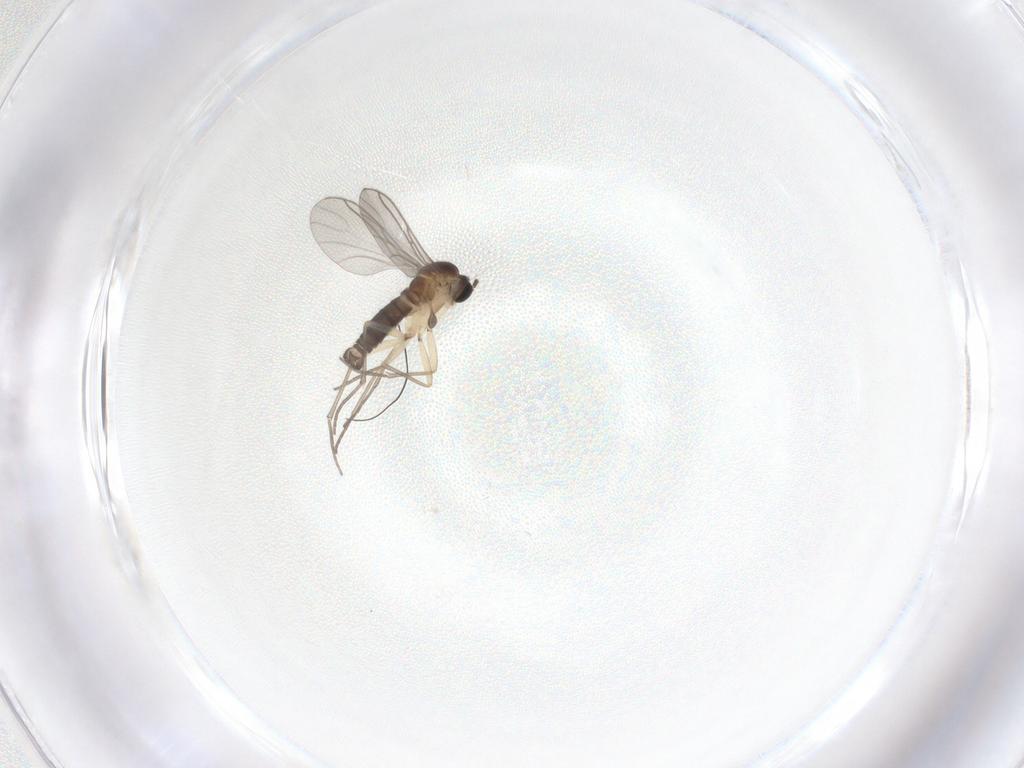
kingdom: Animalia
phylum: Arthropoda
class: Insecta
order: Diptera
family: Sciaridae
